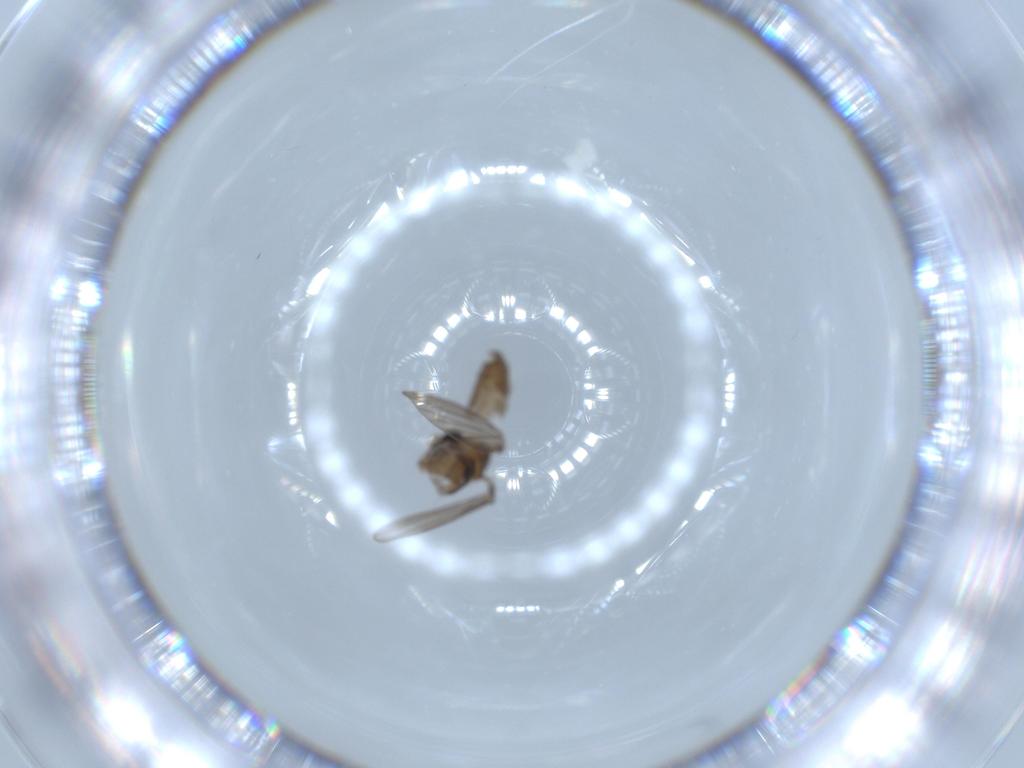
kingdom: Animalia
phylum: Arthropoda
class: Insecta
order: Diptera
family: Psychodidae
